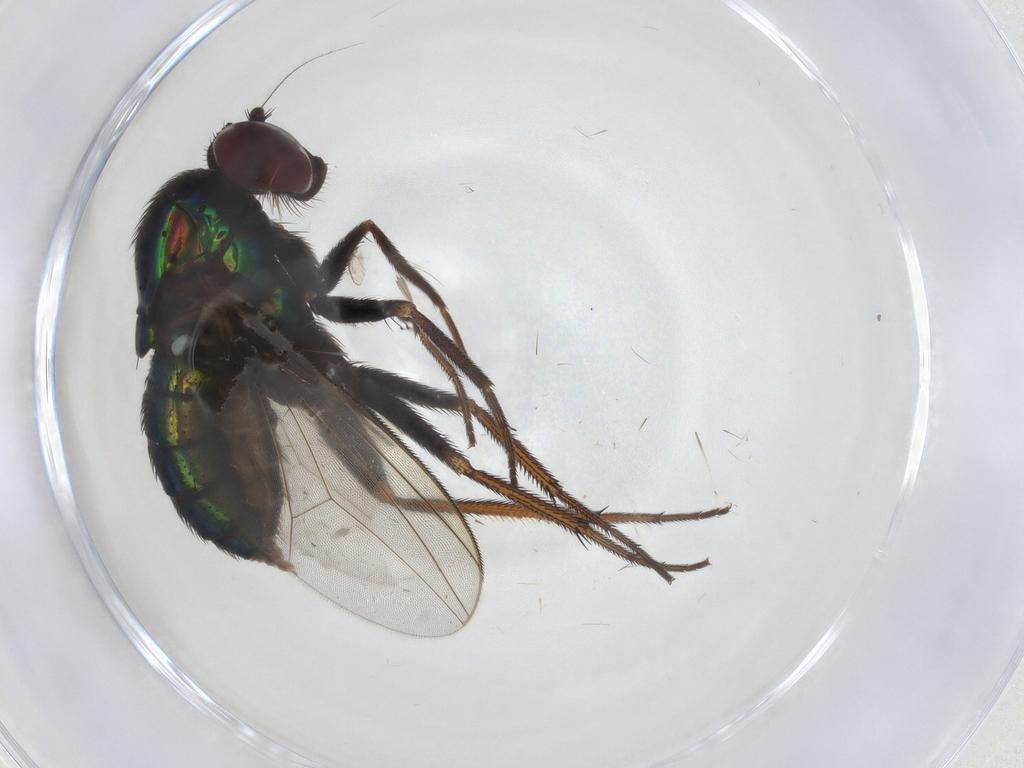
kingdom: Animalia
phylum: Arthropoda
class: Insecta
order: Diptera
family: Dolichopodidae
